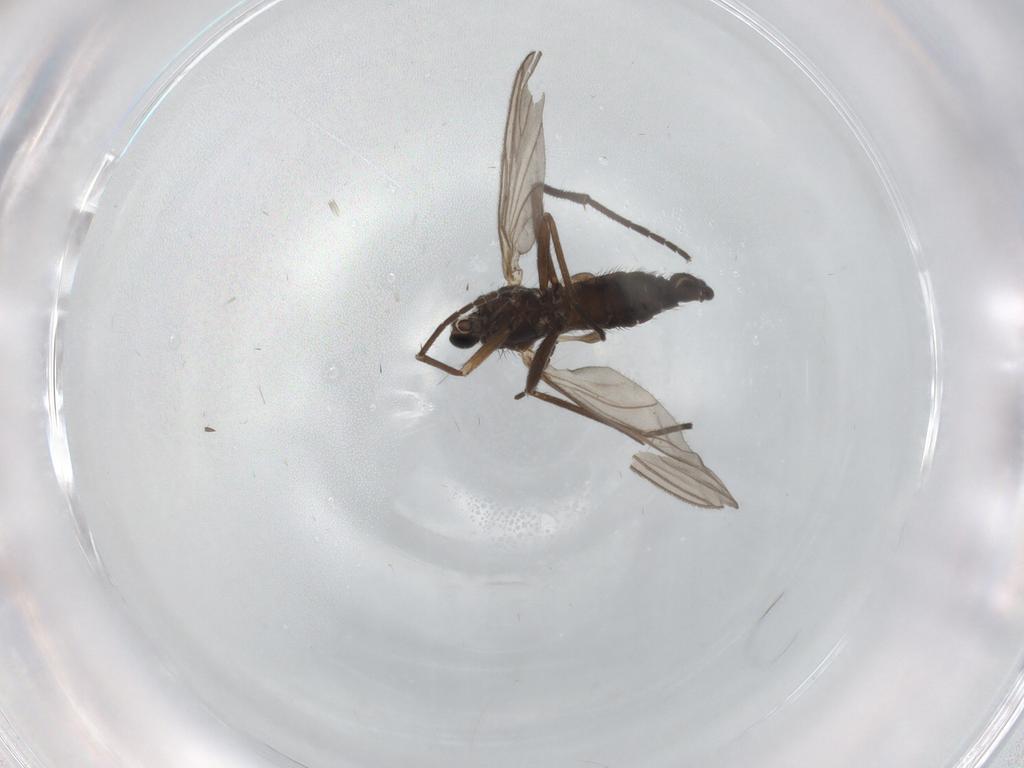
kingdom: Animalia
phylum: Arthropoda
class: Insecta
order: Diptera
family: Sciaridae
